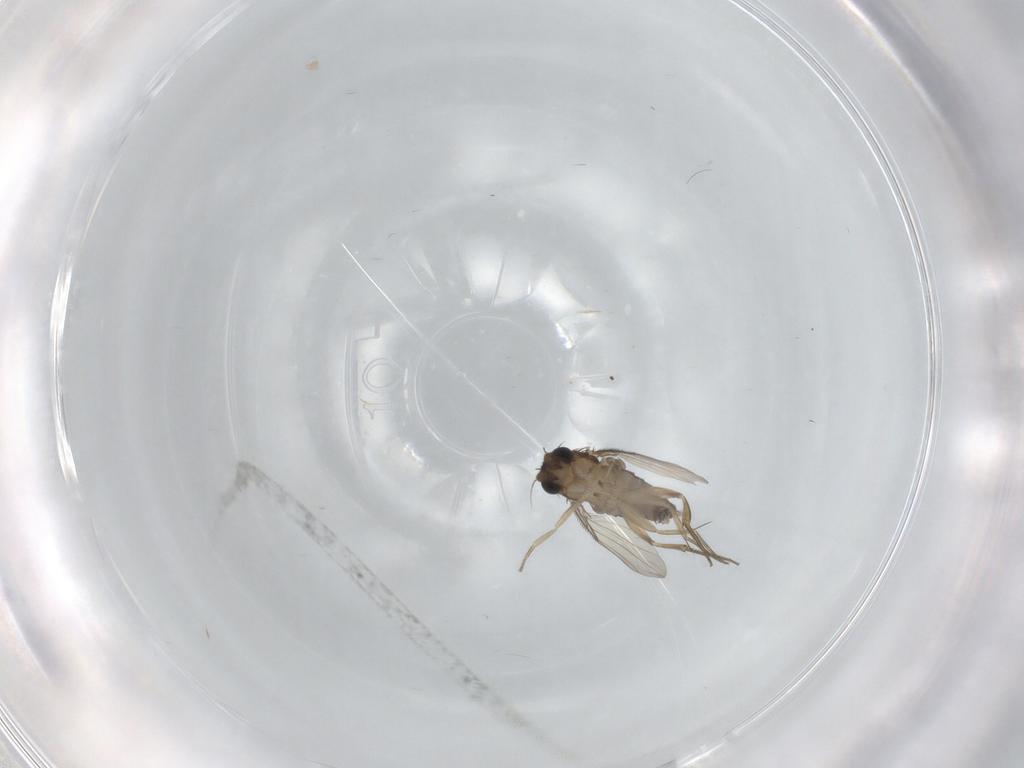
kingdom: Animalia
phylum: Arthropoda
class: Insecta
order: Diptera
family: Phoridae
